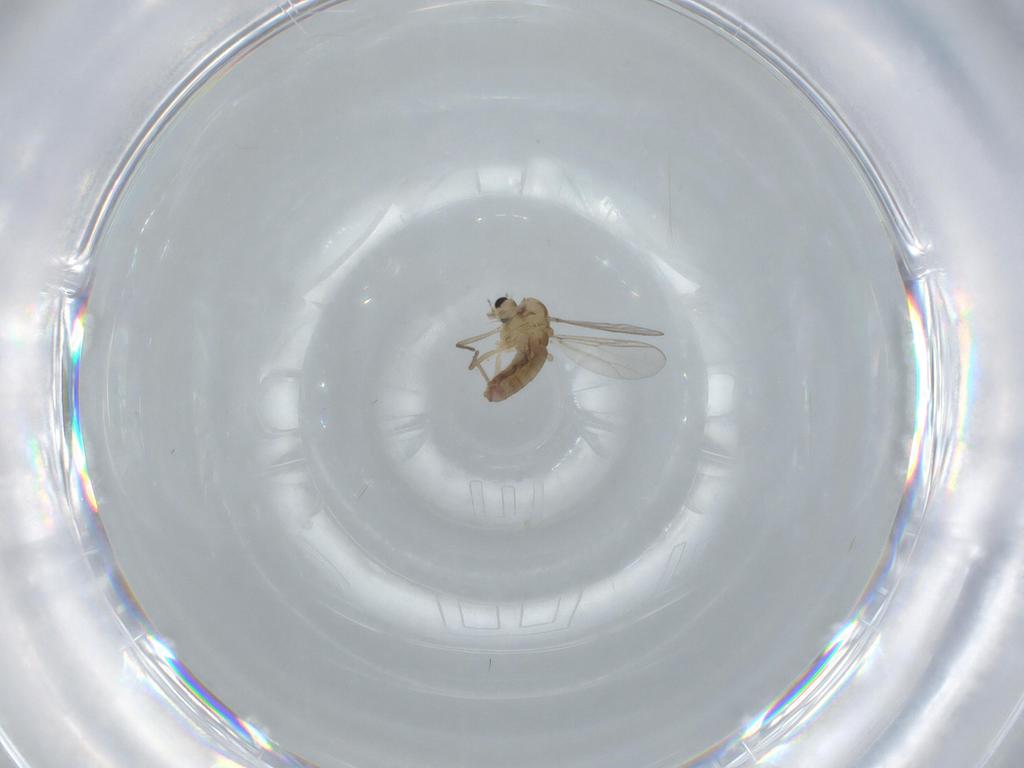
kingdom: Animalia
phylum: Arthropoda
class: Insecta
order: Diptera
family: Chironomidae
